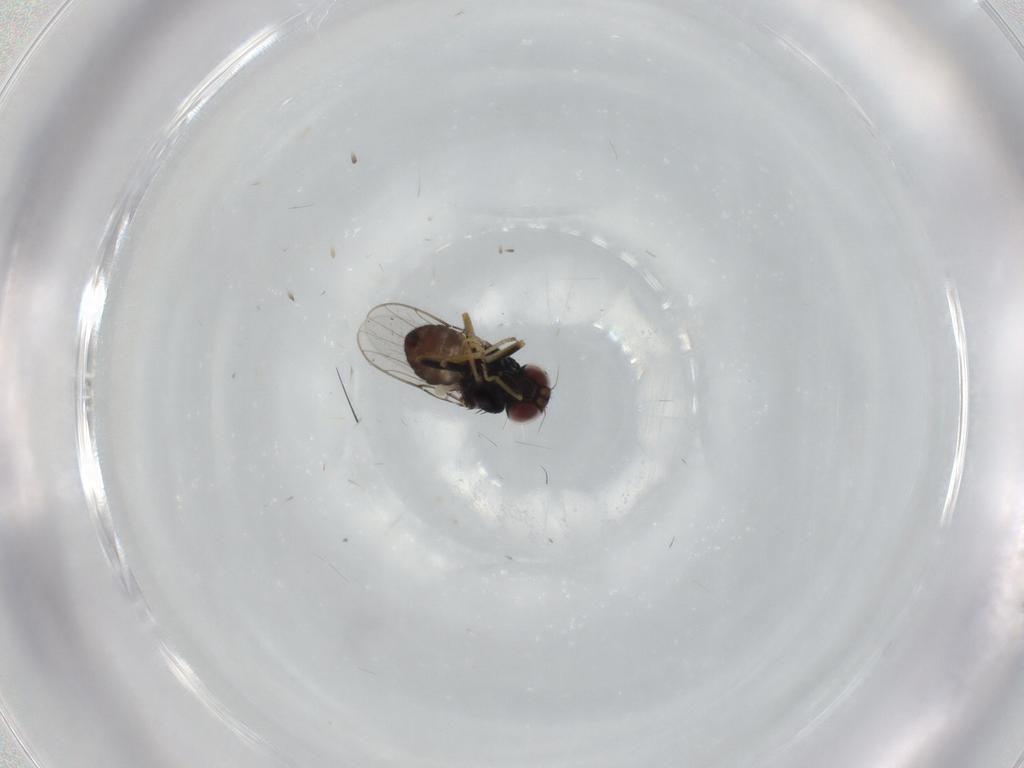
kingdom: Animalia
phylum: Arthropoda
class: Insecta
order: Diptera
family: Chloropidae
